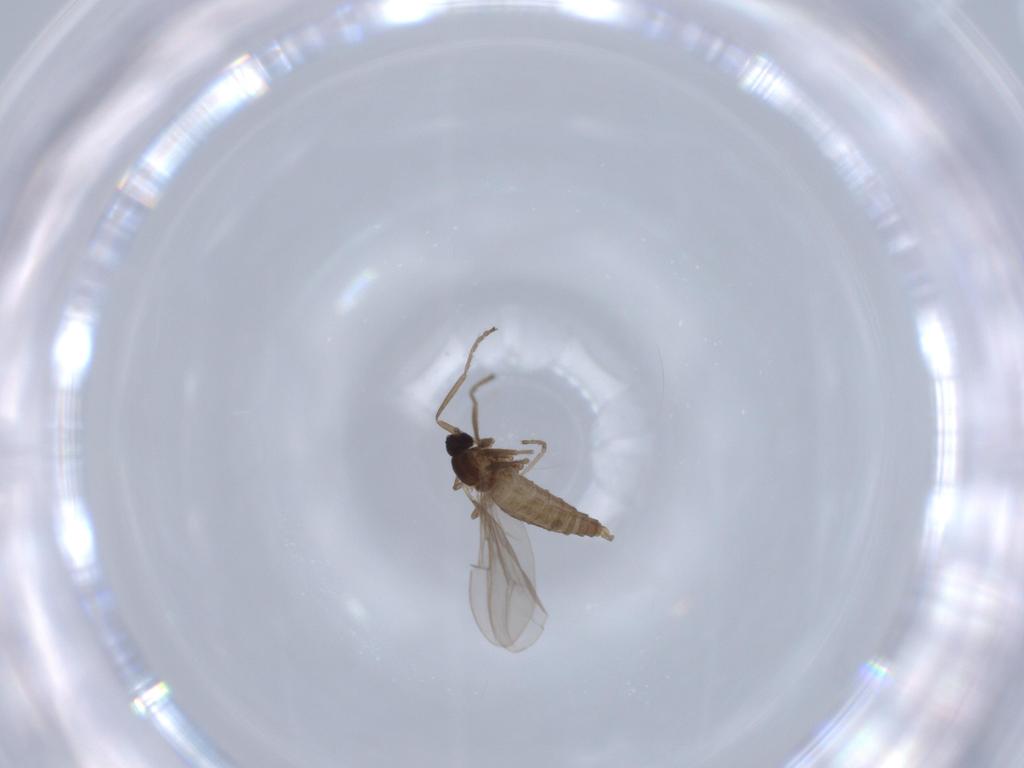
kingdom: Animalia
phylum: Arthropoda
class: Insecta
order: Diptera
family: Cecidomyiidae
